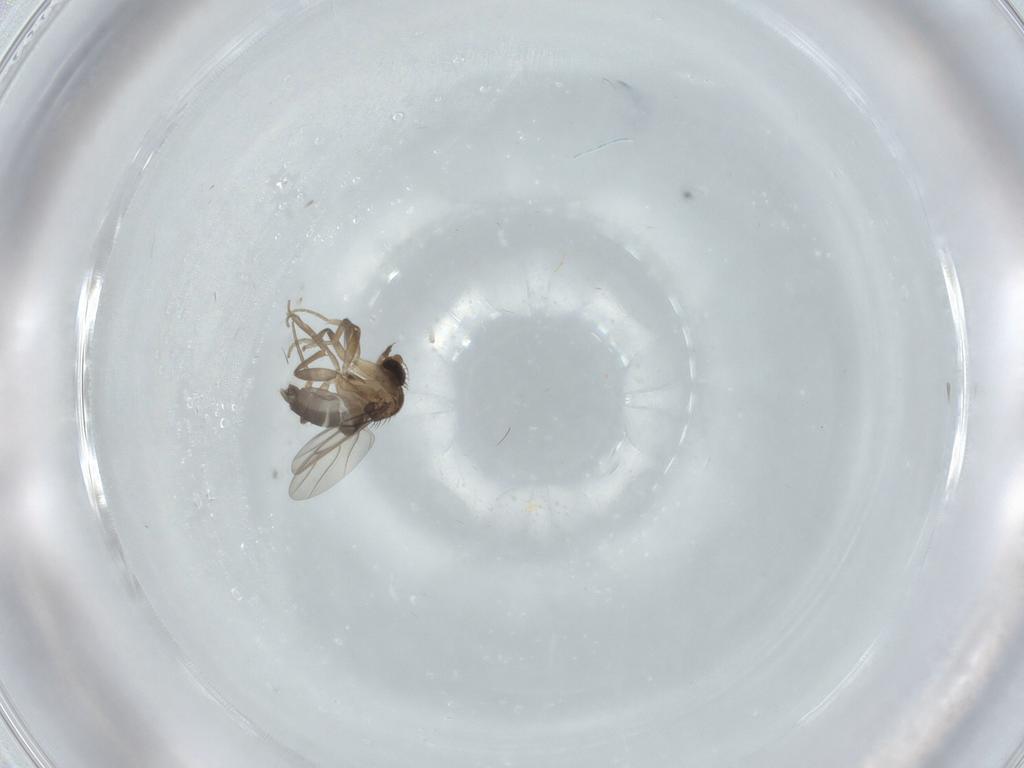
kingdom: Animalia
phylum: Arthropoda
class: Insecta
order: Diptera
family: Phoridae
